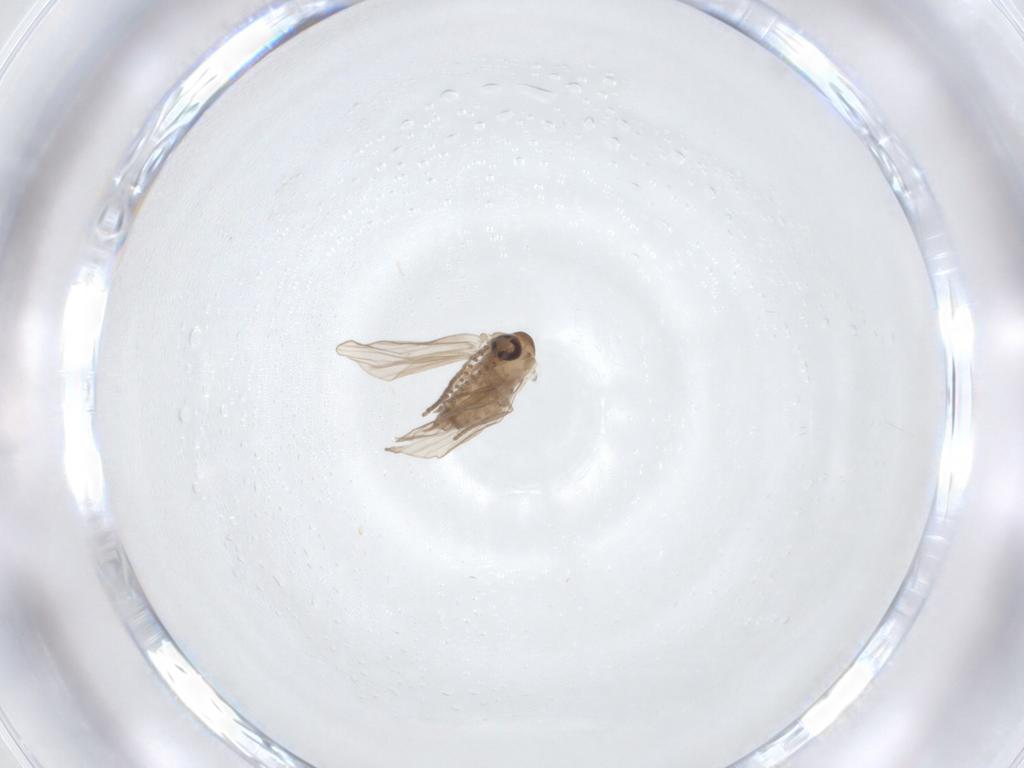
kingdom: Animalia
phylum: Arthropoda
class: Insecta
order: Diptera
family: Psychodidae
